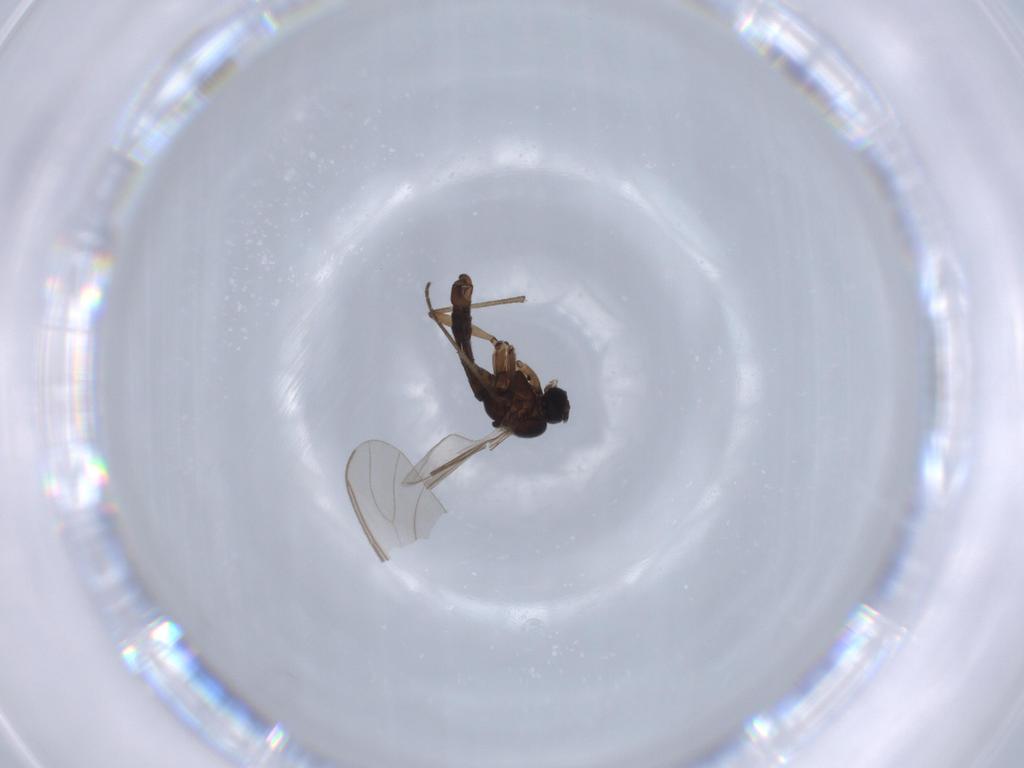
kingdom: Animalia
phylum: Arthropoda
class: Insecta
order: Diptera
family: Sciaridae
